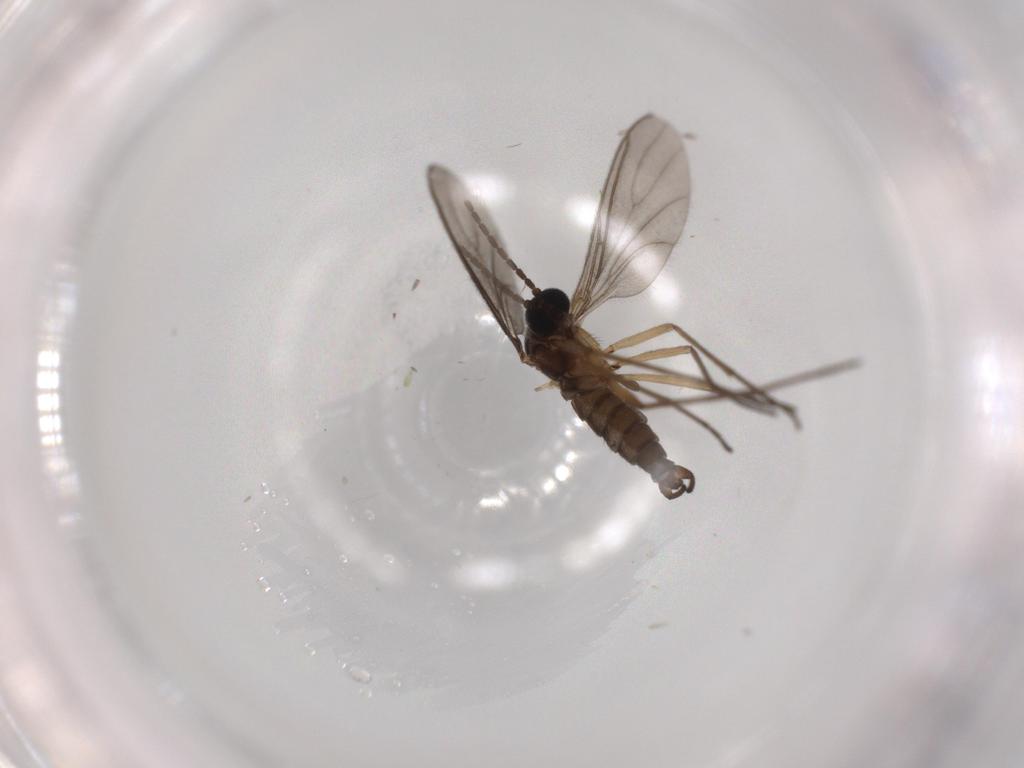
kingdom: Animalia
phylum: Arthropoda
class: Insecta
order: Diptera
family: Sciaridae
